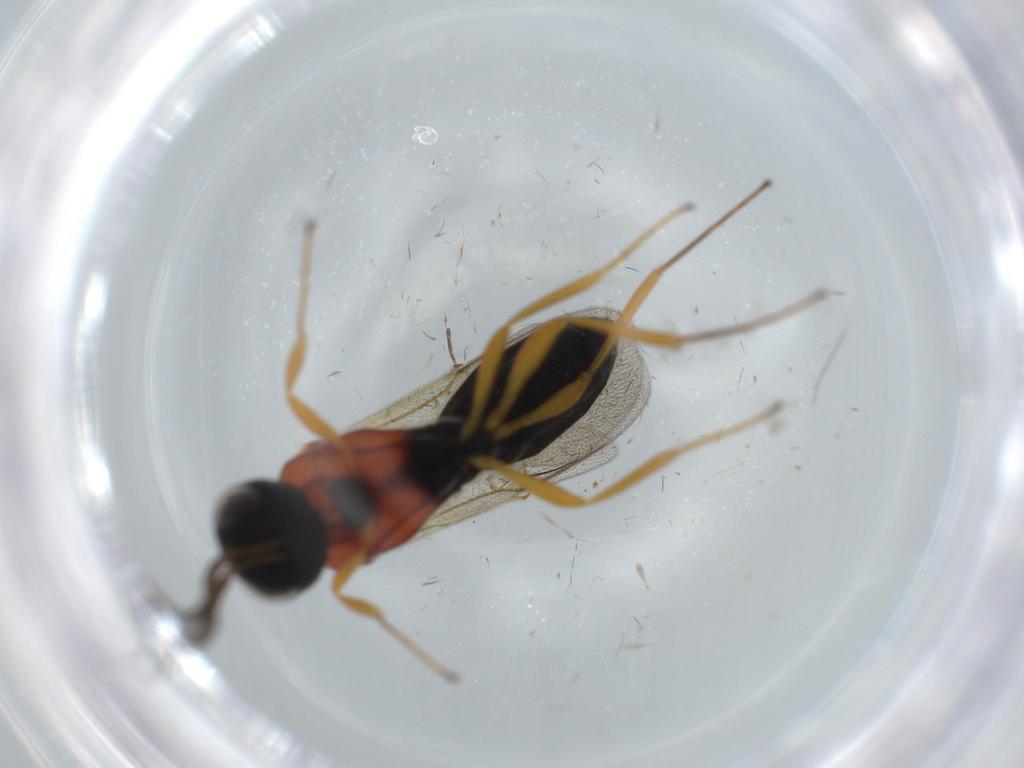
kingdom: Animalia
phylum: Arthropoda
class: Insecta
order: Hymenoptera
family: Scelionidae
